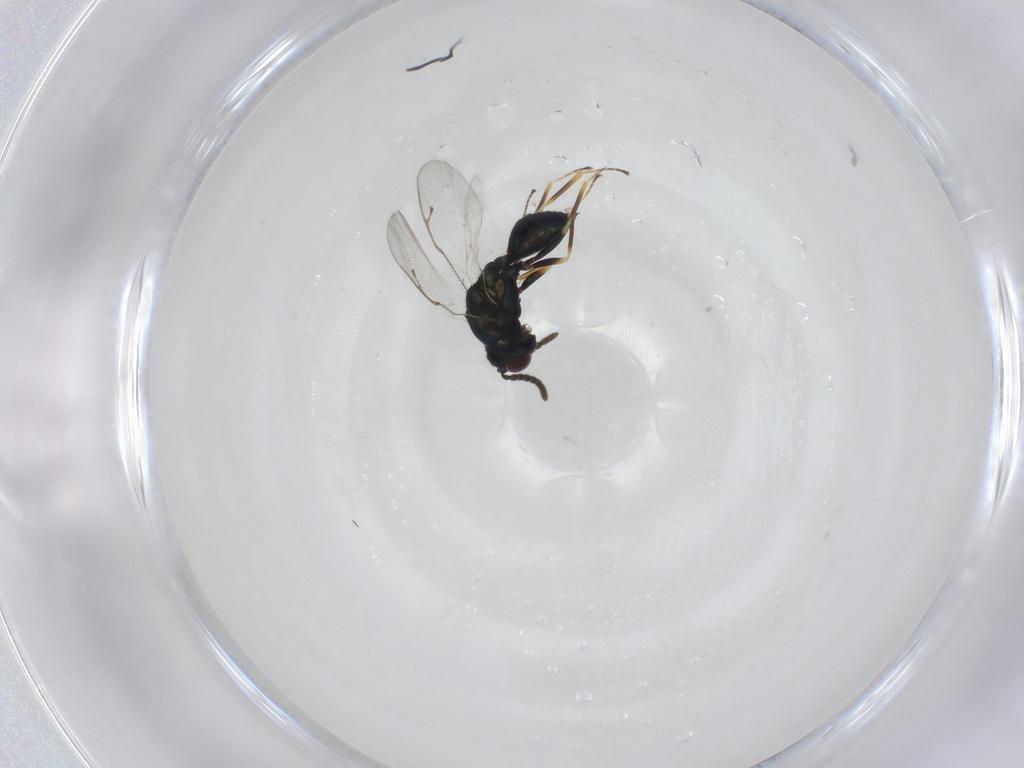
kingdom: Animalia
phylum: Arthropoda
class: Insecta
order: Hymenoptera
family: Pteromalidae
